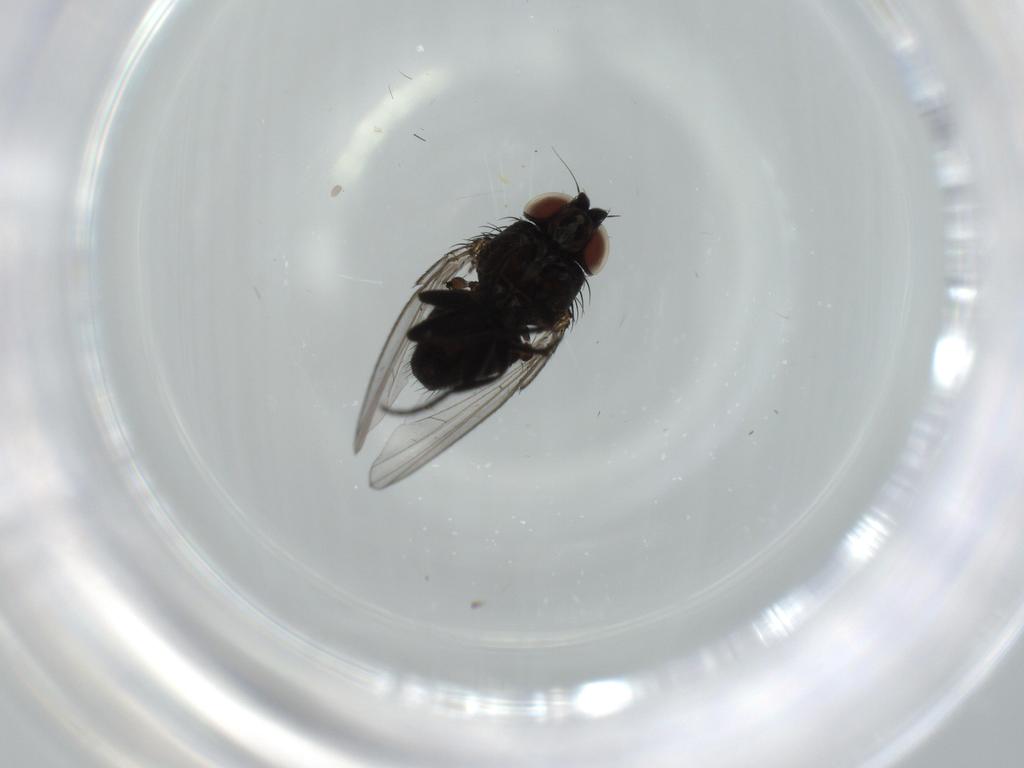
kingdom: Animalia
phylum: Arthropoda
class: Insecta
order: Diptera
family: Milichiidae
